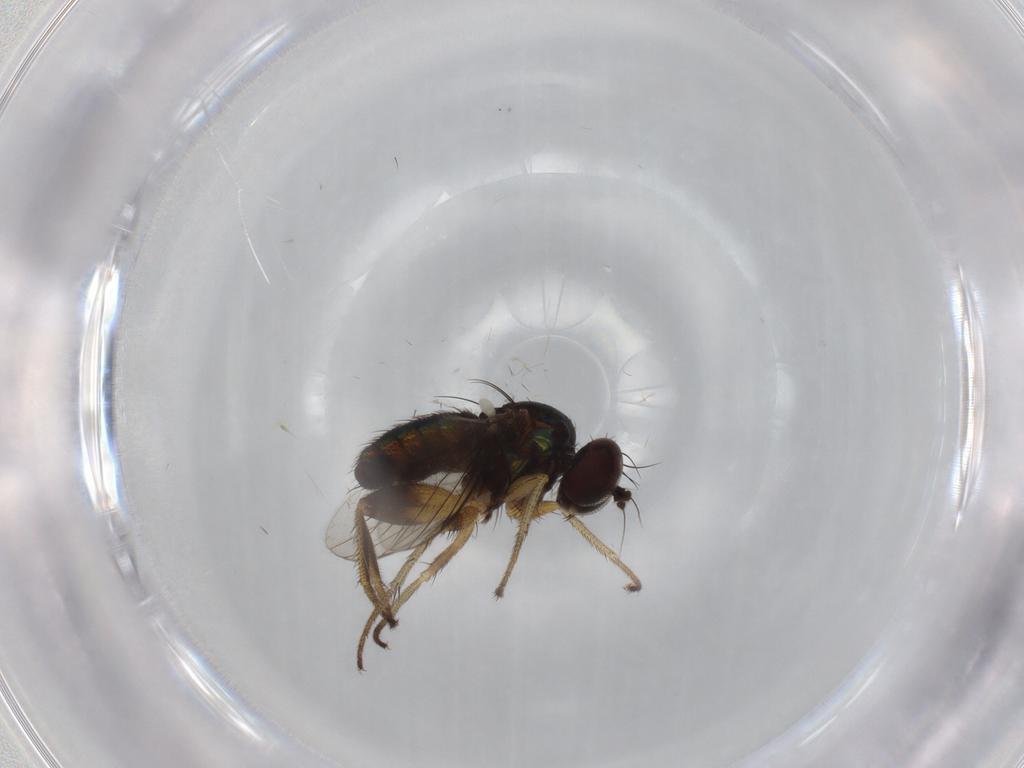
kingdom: Animalia
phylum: Arthropoda
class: Insecta
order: Diptera
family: Dolichopodidae
